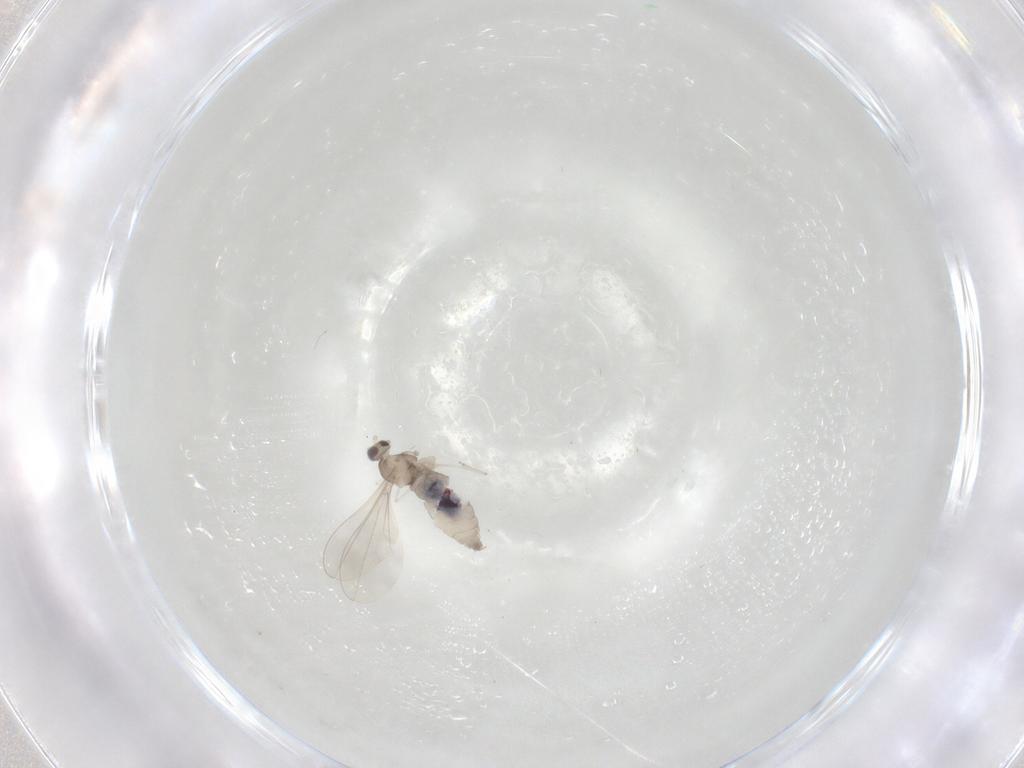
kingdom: Animalia
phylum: Arthropoda
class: Insecta
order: Diptera
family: Cecidomyiidae
